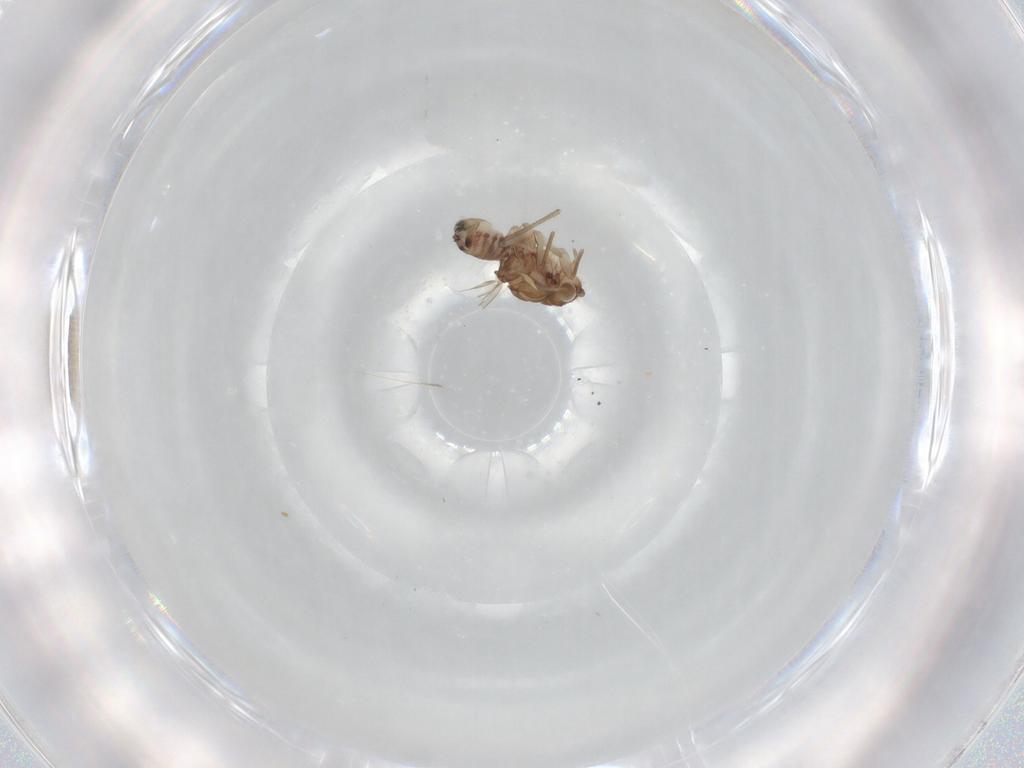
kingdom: Animalia
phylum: Arthropoda
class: Insecta
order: Psocodea
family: Ectopsocidae
